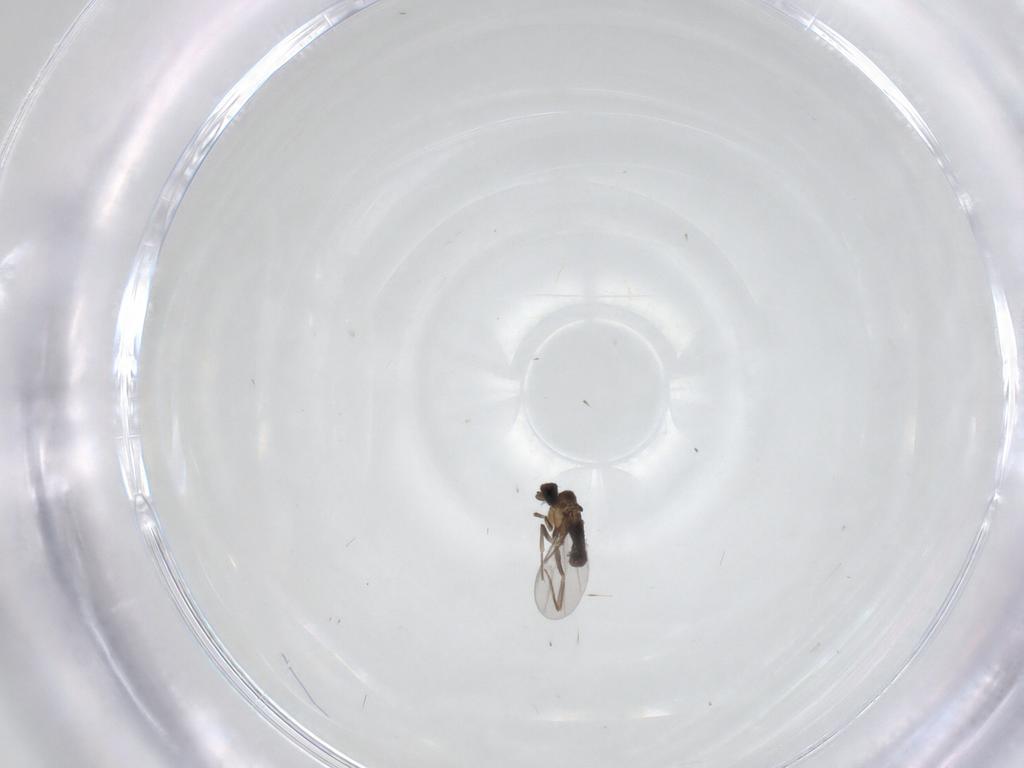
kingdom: Animalia
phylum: Arthropoda
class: Insecta
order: Diptera
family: Phoridae
